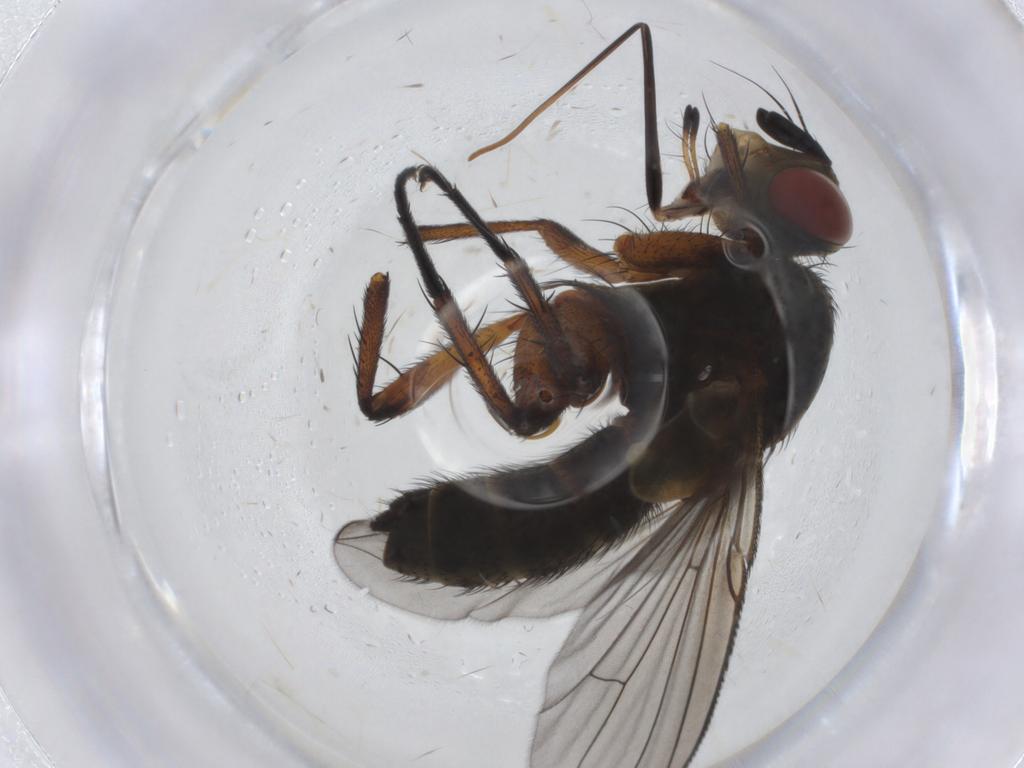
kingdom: Animalia
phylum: Arthropoda
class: Insecta
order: Diptera
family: Tachinidae
